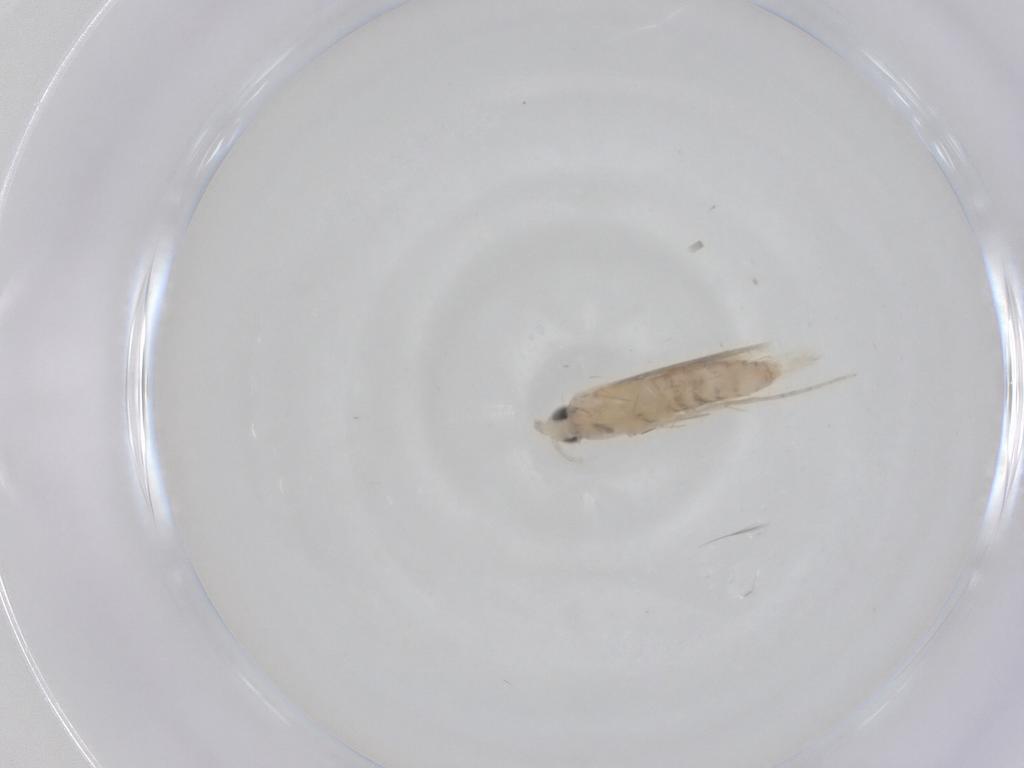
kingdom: Animalia
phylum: Arthropoda
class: Insecta
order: Lepidoptera
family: Tineidae
